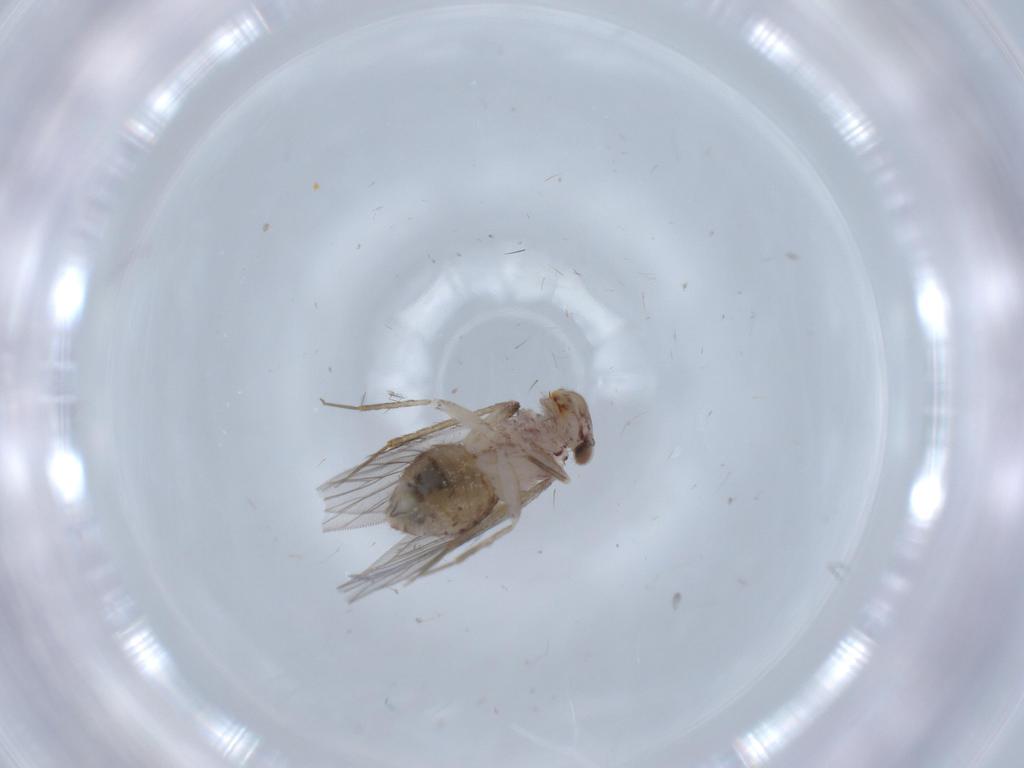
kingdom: Animalia
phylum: Arthropoda
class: Insecta
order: Psocodea
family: Lepidopsocidae
